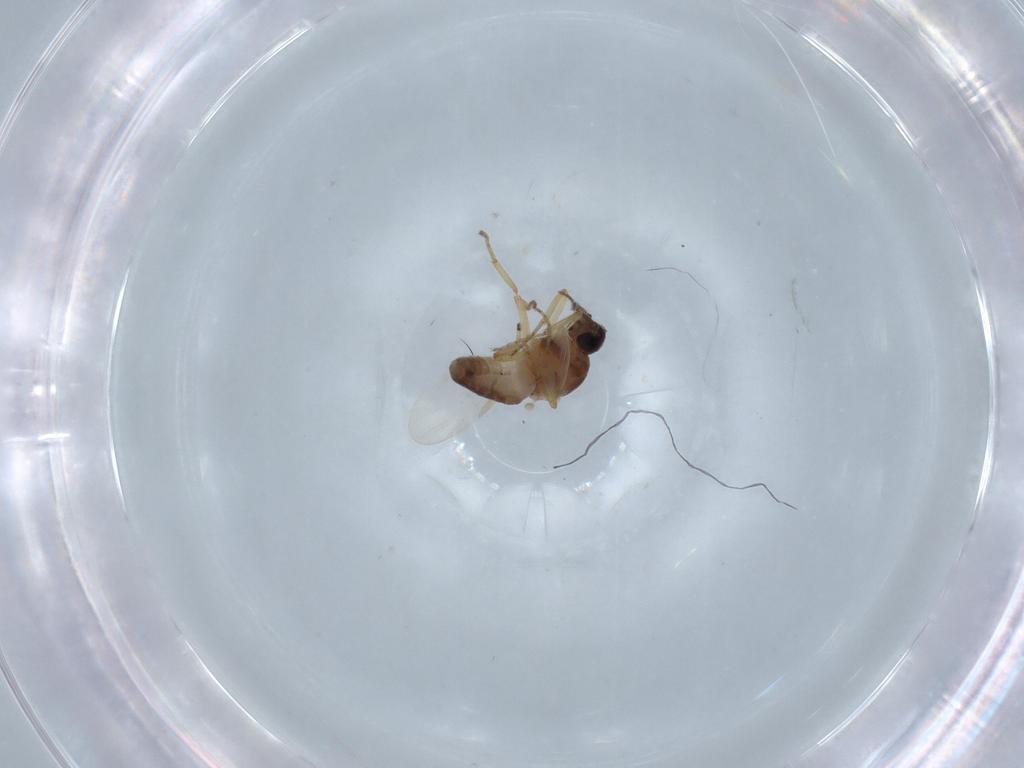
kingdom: Animalia
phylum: Arthropoda
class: Insecta
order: Diptera
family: Ceratopogonidae
